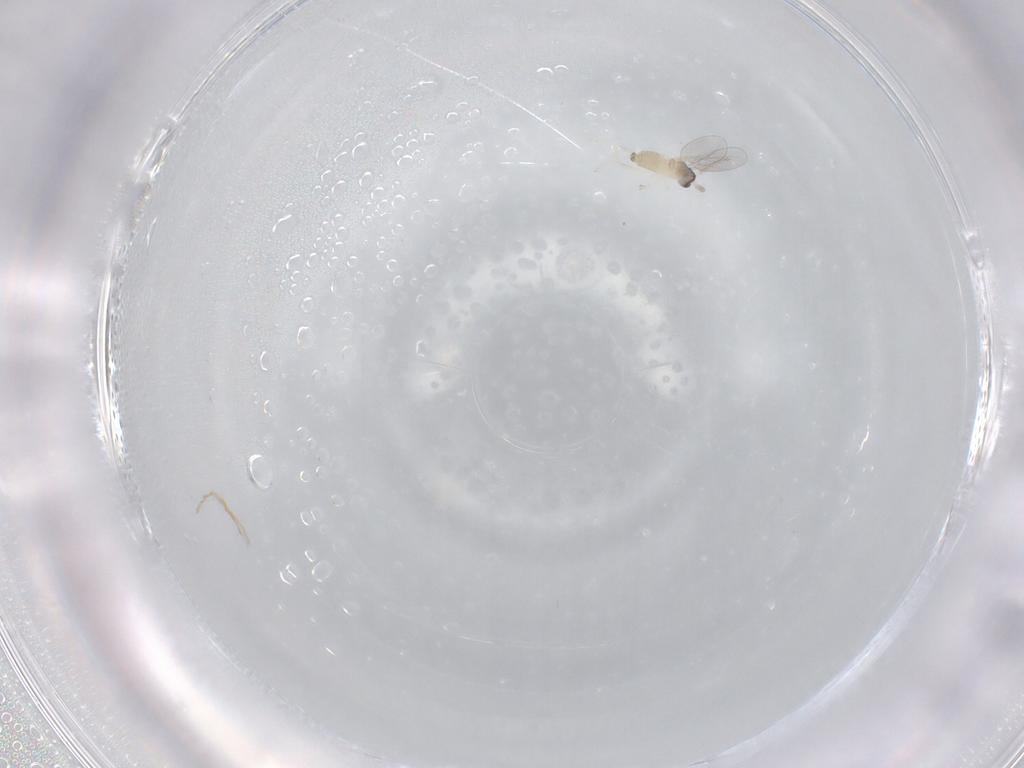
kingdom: Animalia
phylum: Arthropoda
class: Insecta
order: Diptera
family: Cecidomyiidae
